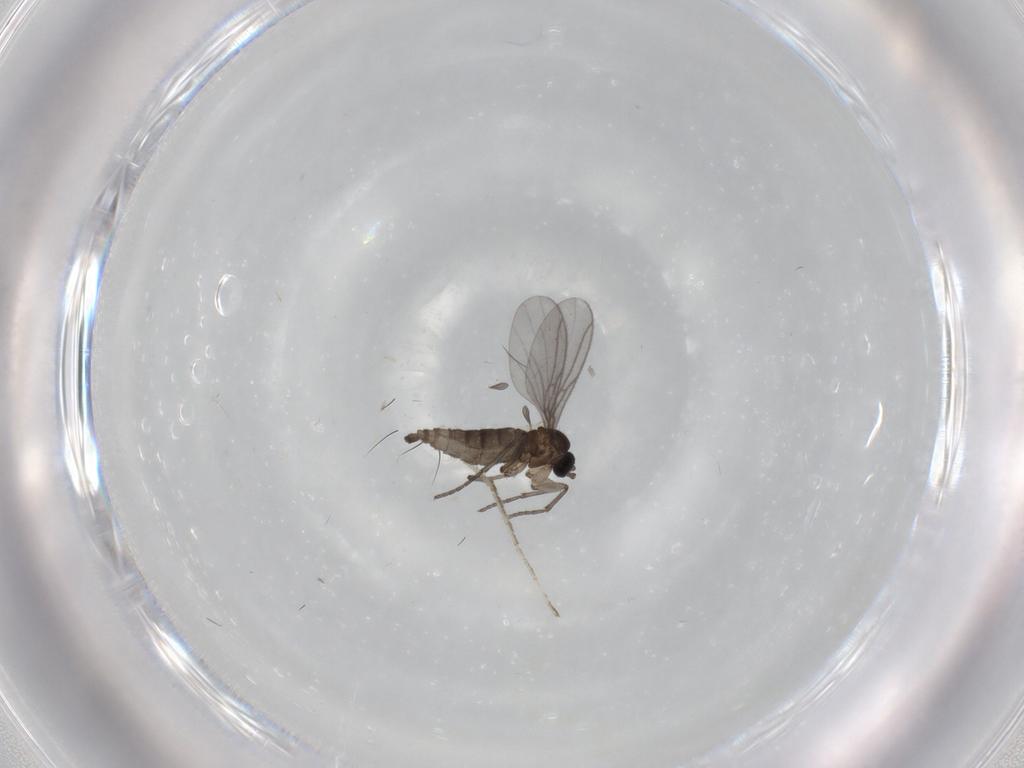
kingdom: Animalia
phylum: Arthropoda
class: Insecta
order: Diptera
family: Sciaridae
